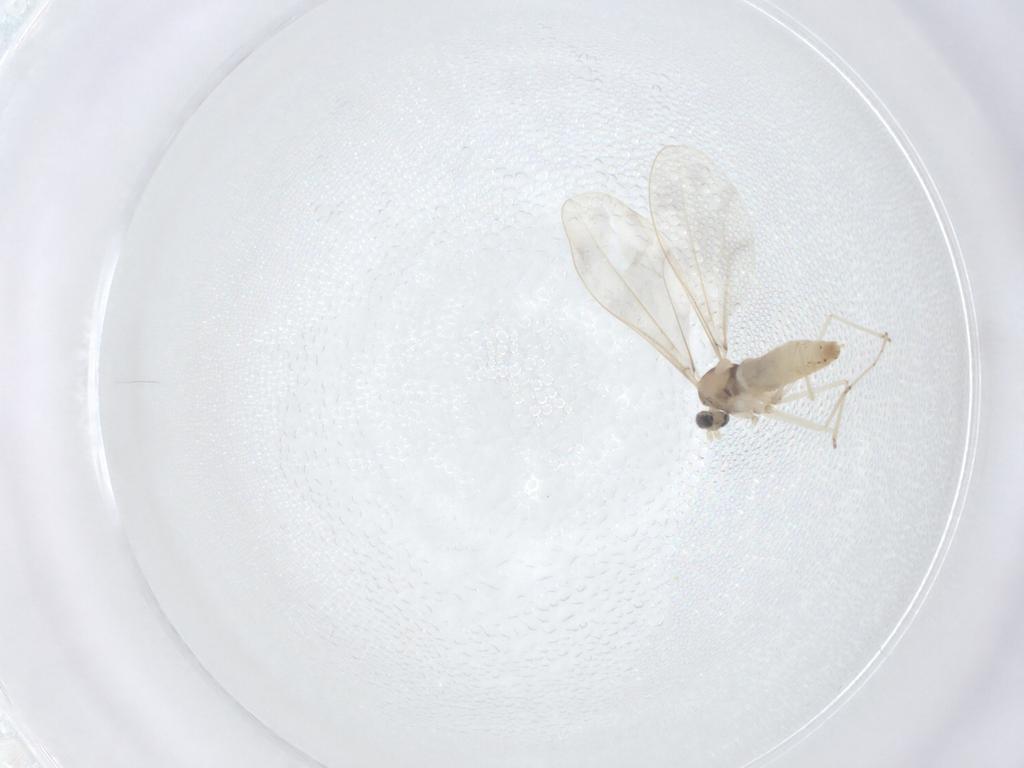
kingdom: Animalia
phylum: Arthropoda
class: Insecta
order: Diptera
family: Cecidomyiidae
